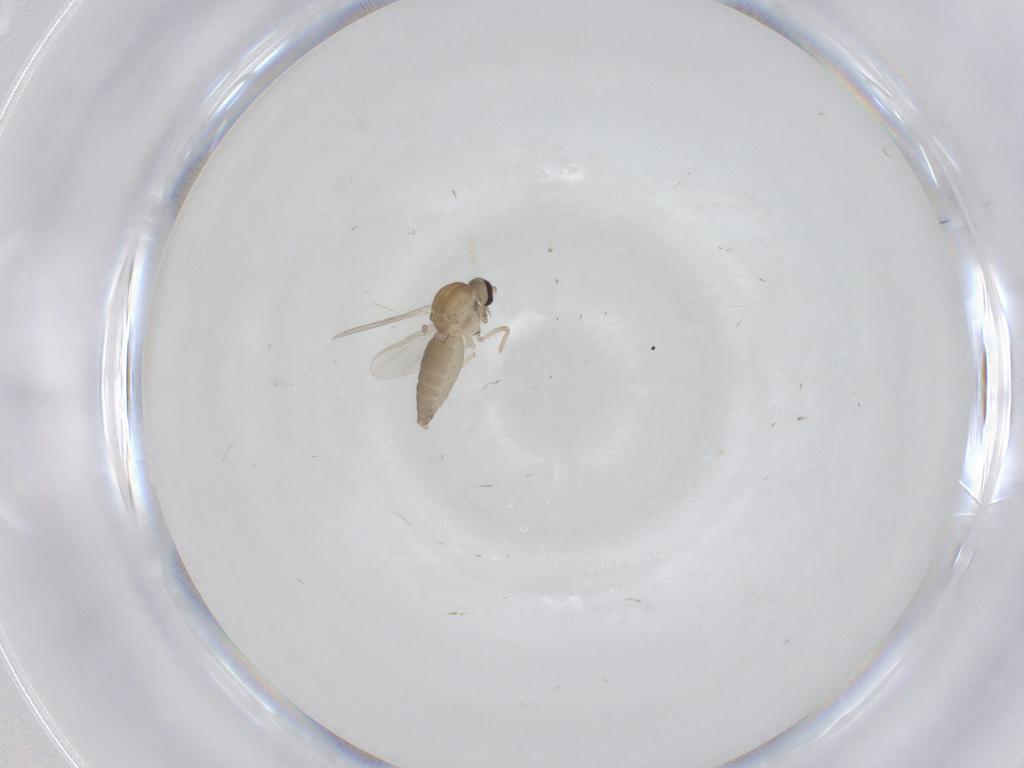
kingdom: Animalia
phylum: Arthropoda
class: Insecta
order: Diptera
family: Ceratopogonidae
